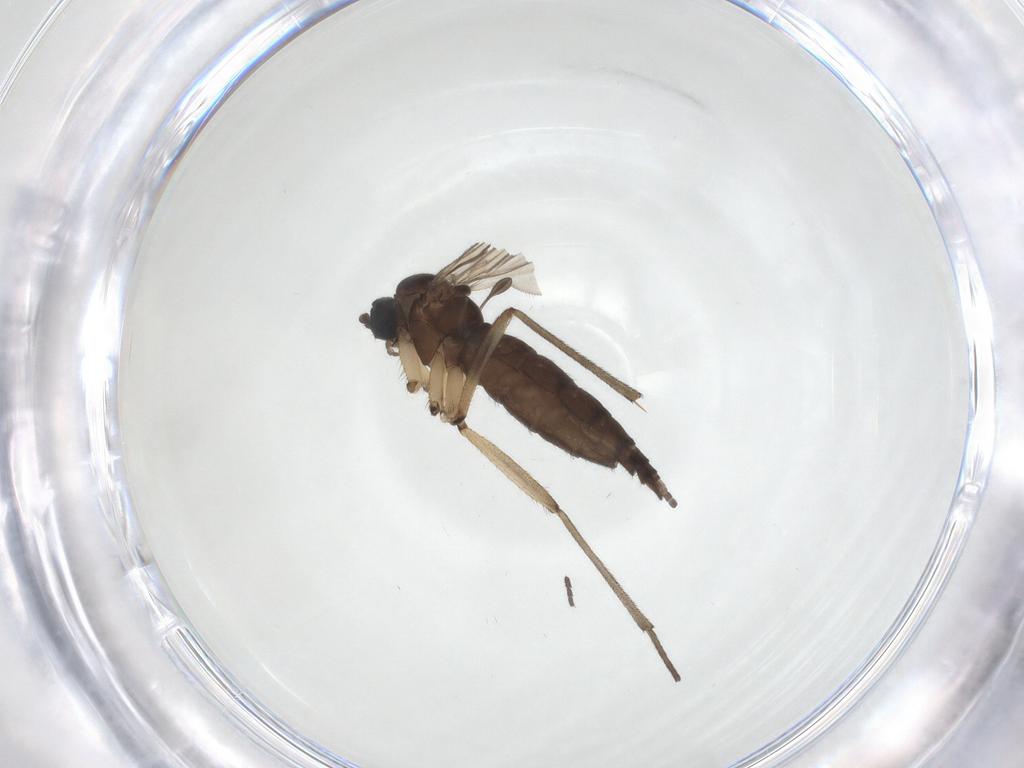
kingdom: Animalia
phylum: Arthropoda
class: Insecta
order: Diptera
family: Sciaridae
